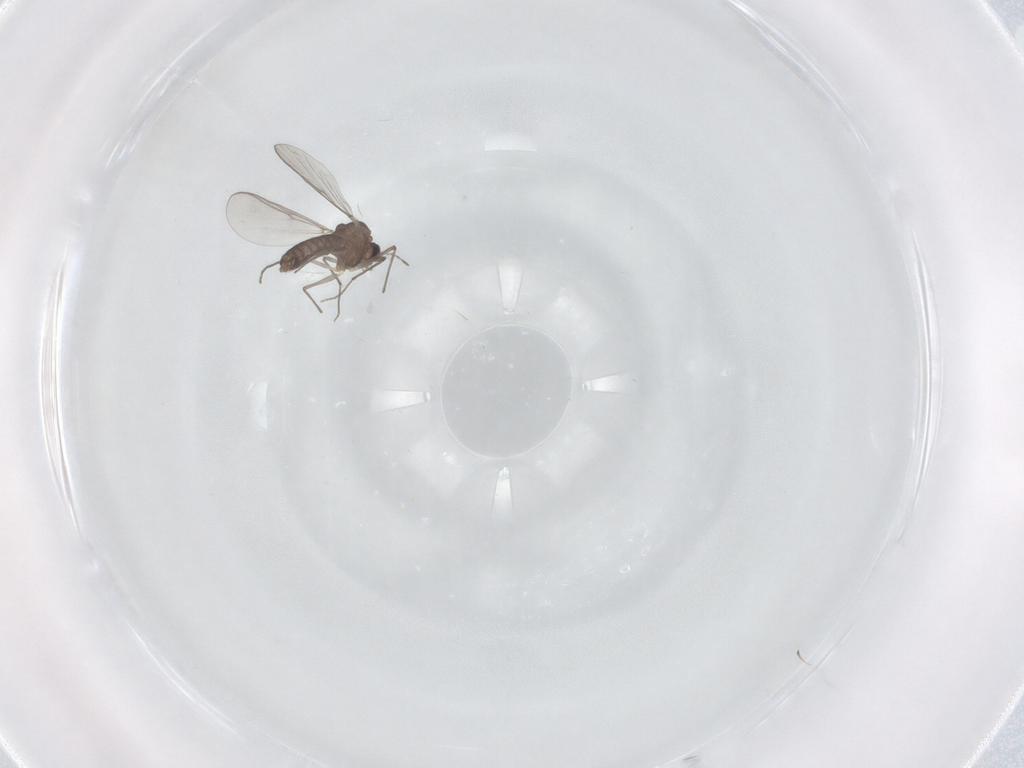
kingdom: Animalia
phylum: Arthropoda
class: Insecta
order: Diptera
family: Chironomidae
